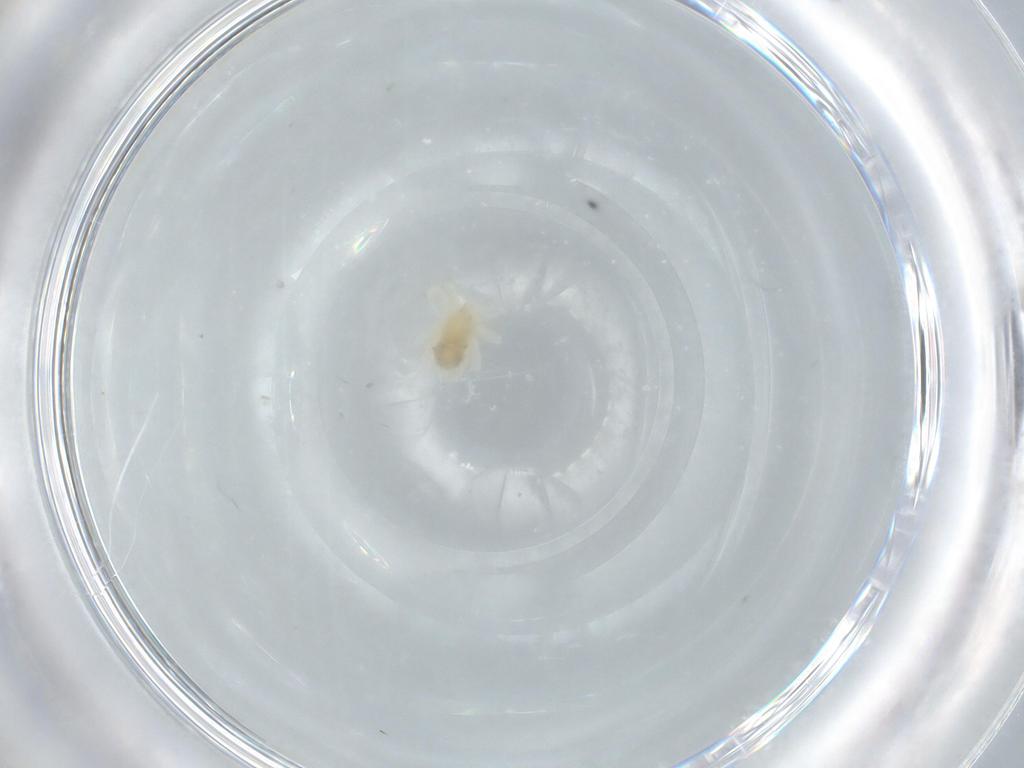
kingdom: Animalia
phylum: Arthropoda
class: Arachnida
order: Trombidiformes
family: Anystidae
